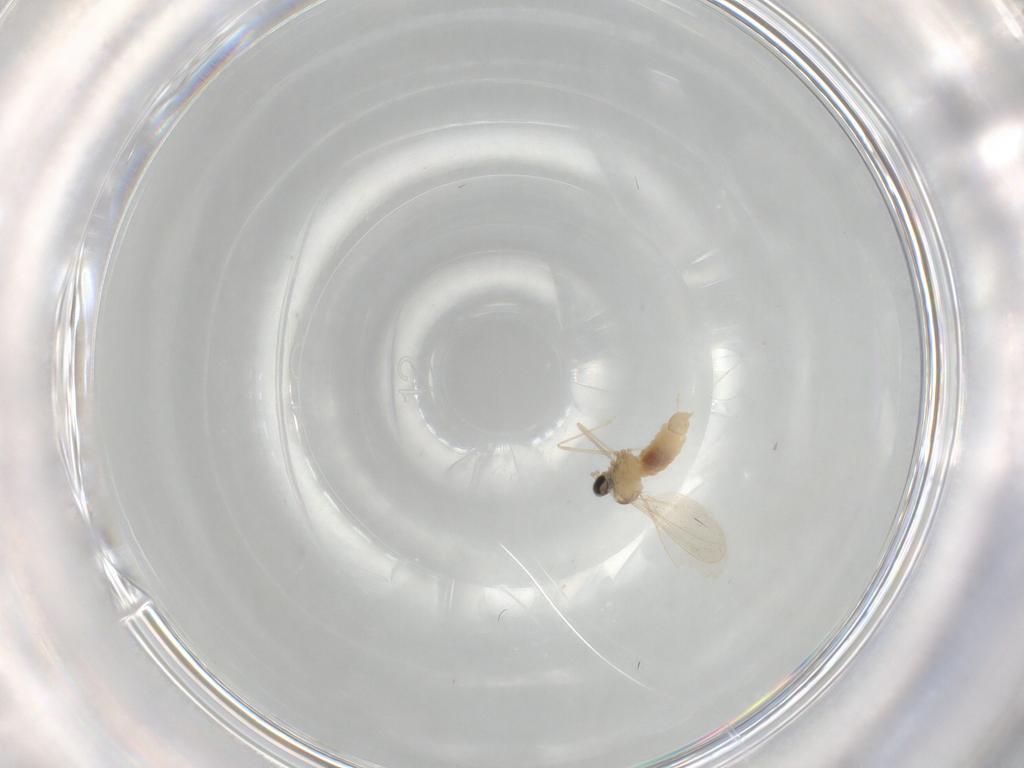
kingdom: Animalia
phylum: Arthropoda
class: Insecta
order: Diptera
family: Cecidomyiidae
